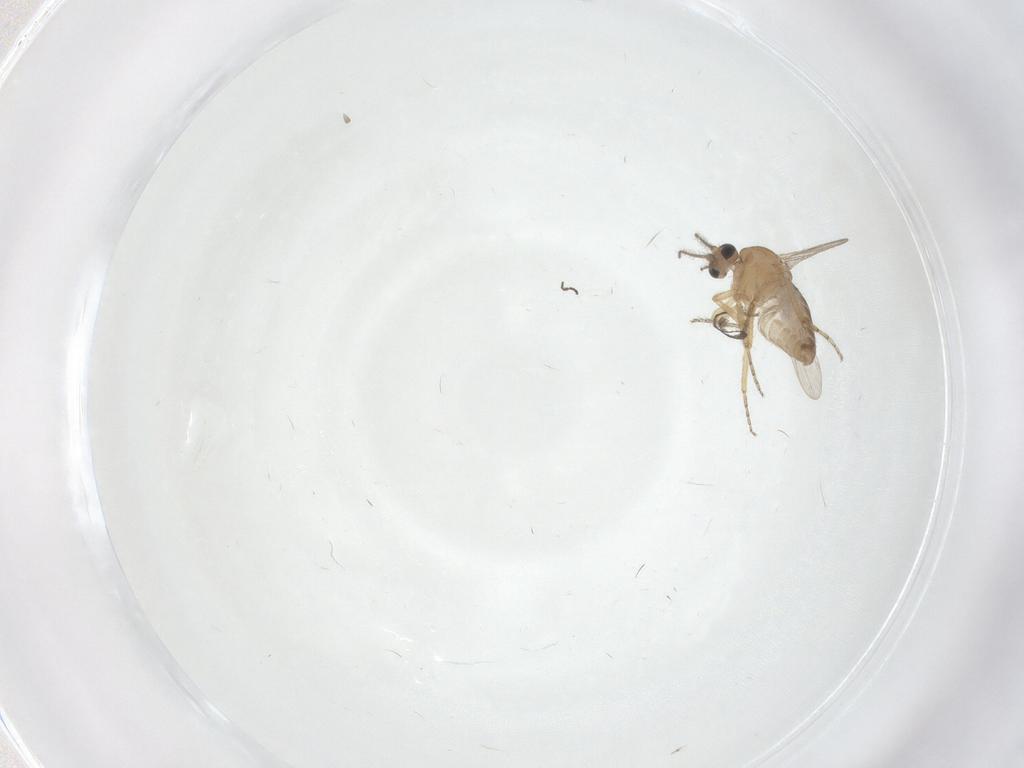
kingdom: Animalia
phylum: Arthropoda
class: Insecta
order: Diptera
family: Ceratopogonidae
